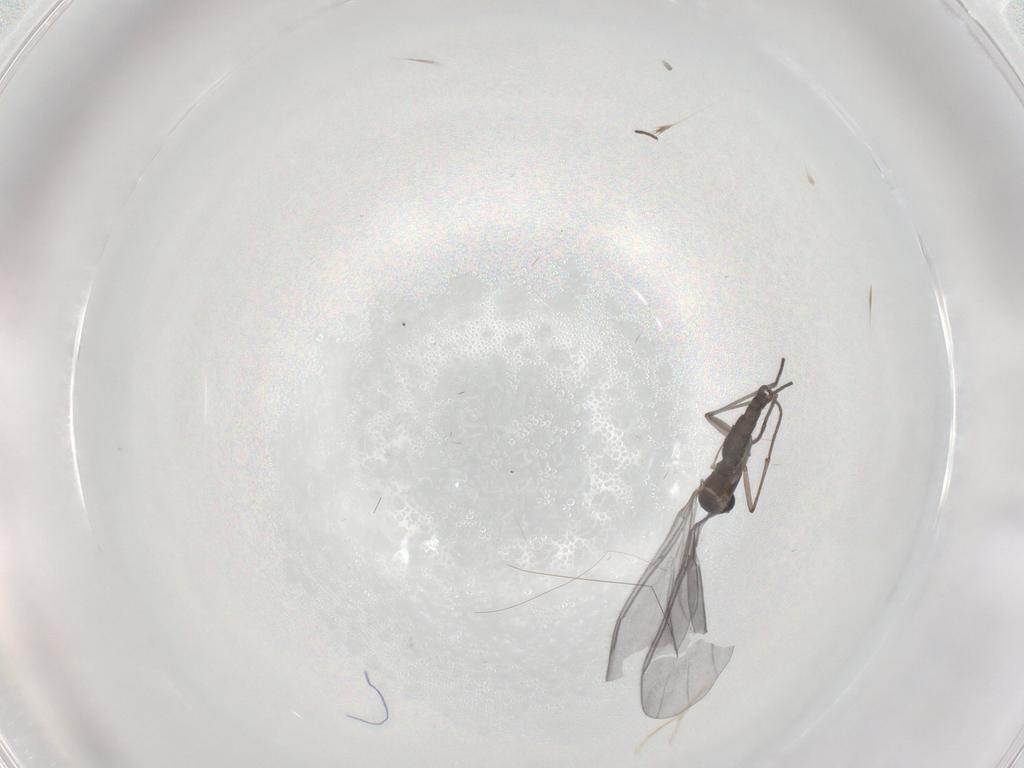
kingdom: Animalia
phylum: Arthropoda
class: Insecta
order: Diptera
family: Sciaridae
